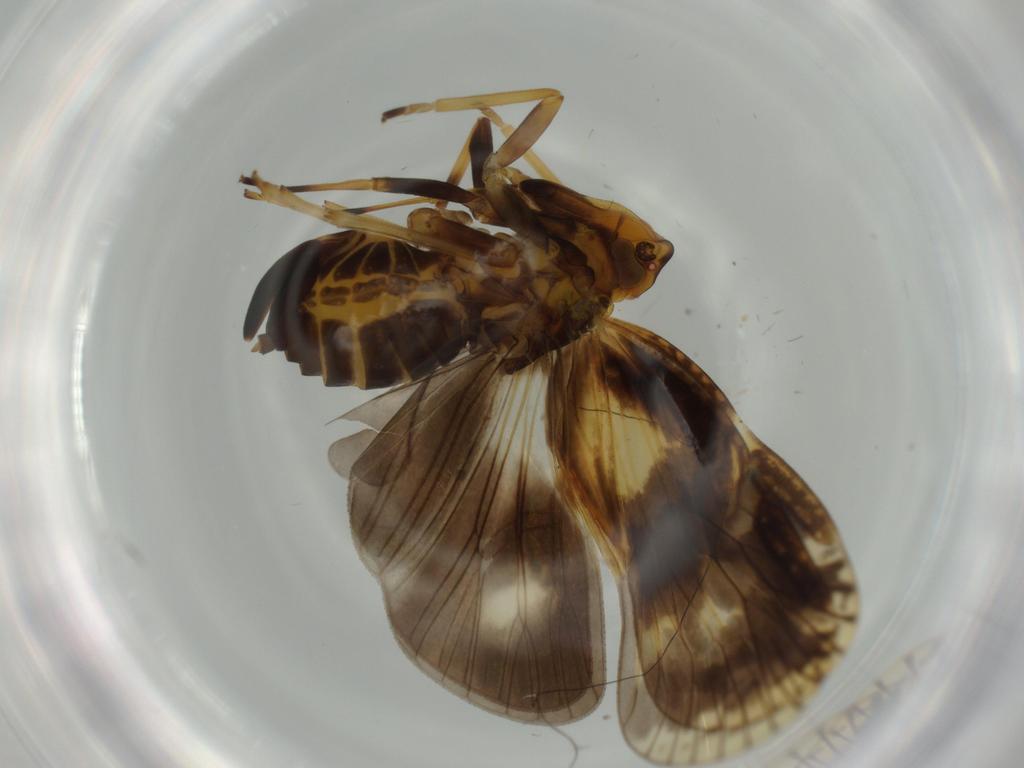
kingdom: Animalia
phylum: Arthropoda
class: Insecta
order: Hemiptera
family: Cixiidae
